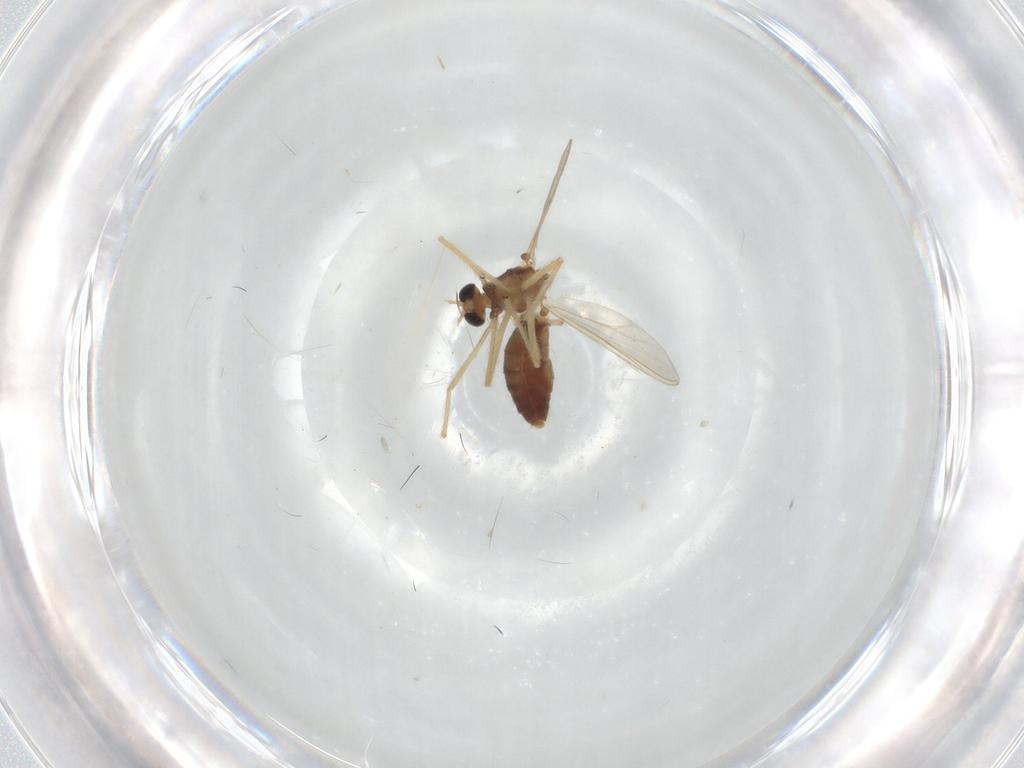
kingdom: Animalia
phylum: Arthropoda
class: Insecta
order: Diptera
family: Chironomidae
